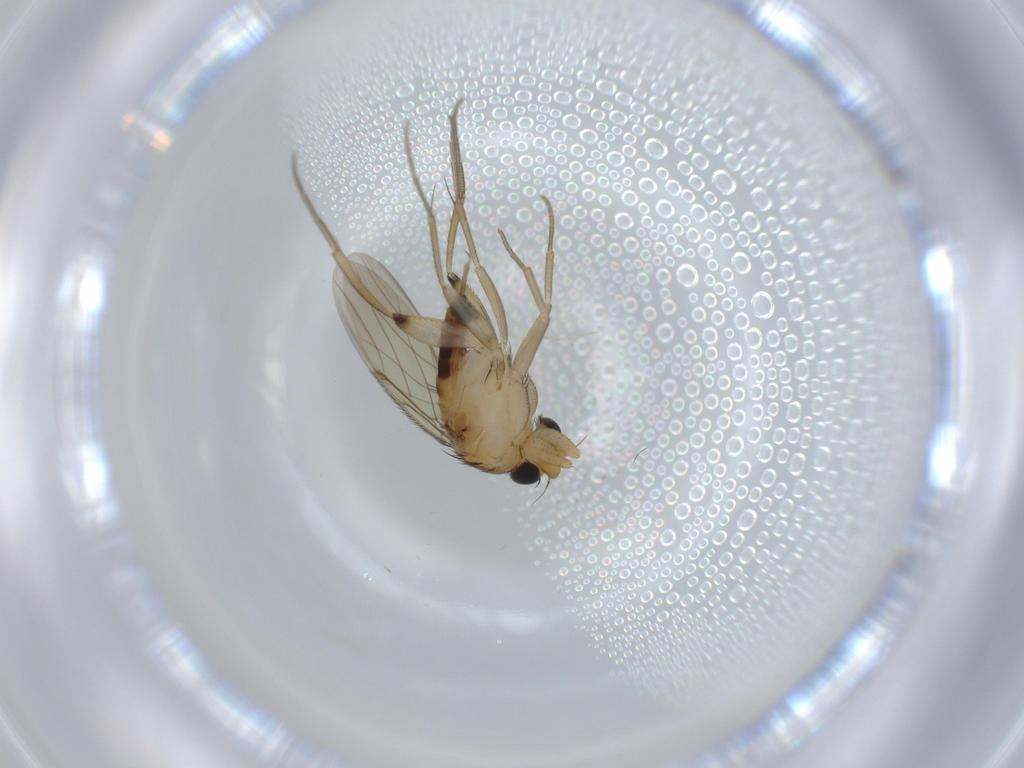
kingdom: Animalia
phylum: Arthropoda
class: Insecta
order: Diptera
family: Phoridae
